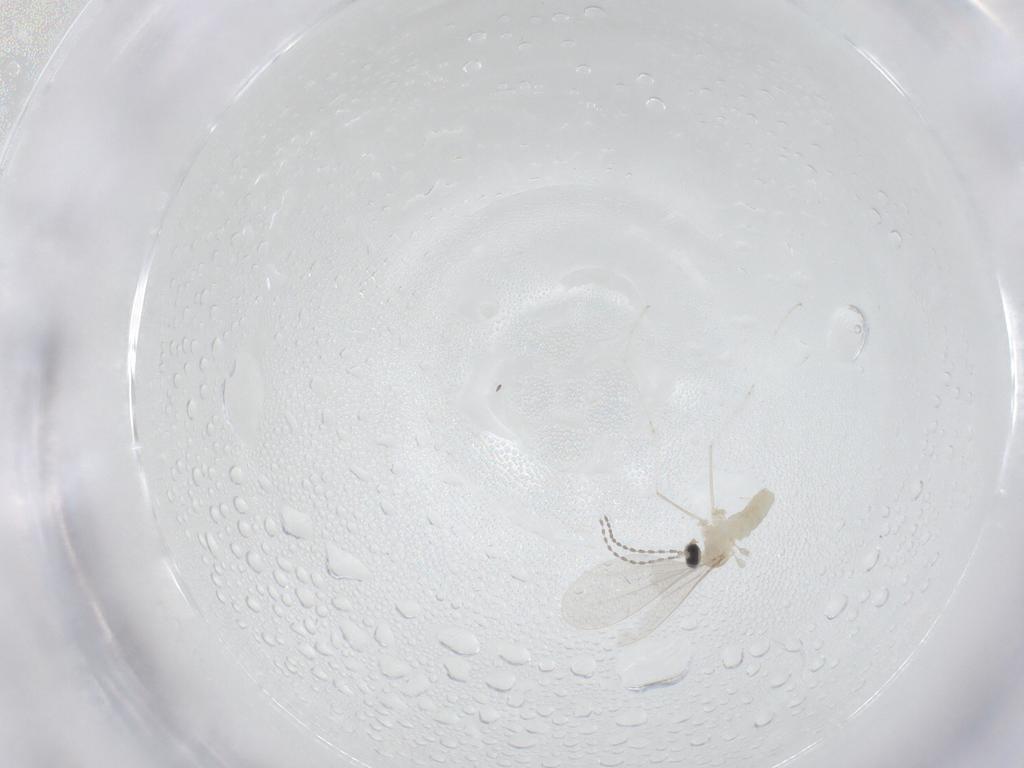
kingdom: Animalia
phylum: Arthropoda
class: Insecta
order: Diptera
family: Cecidomyiidae
